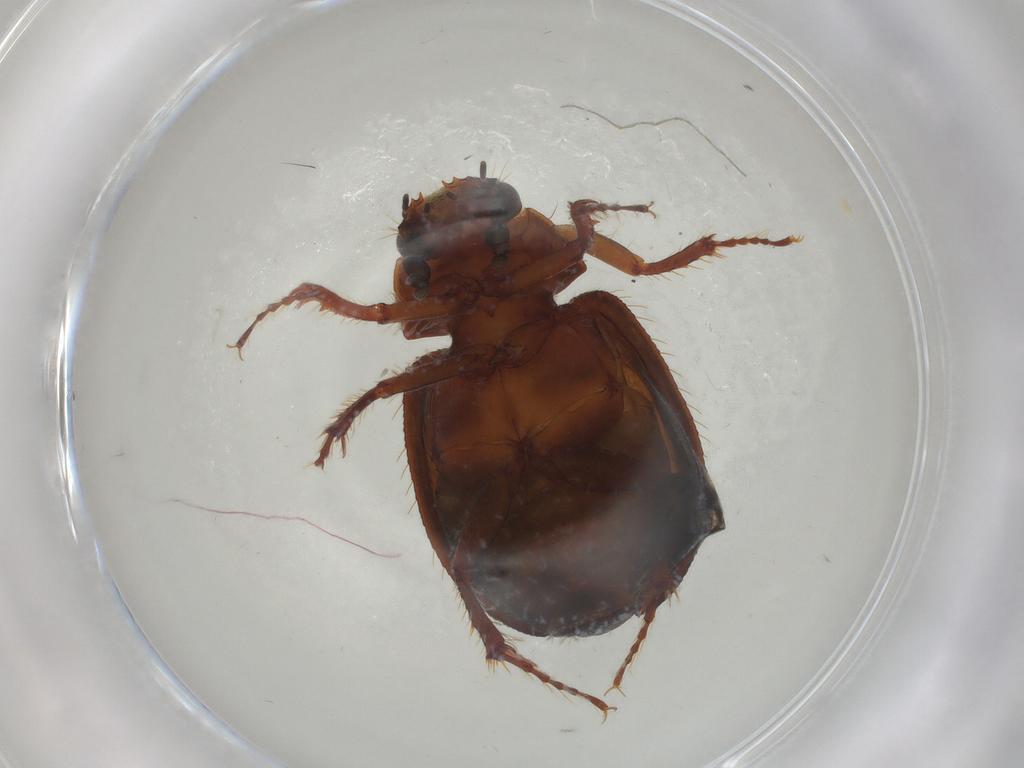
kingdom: Animalia
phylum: Arthropoda
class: Insecta
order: Coleoptera
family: Hybosoridae
